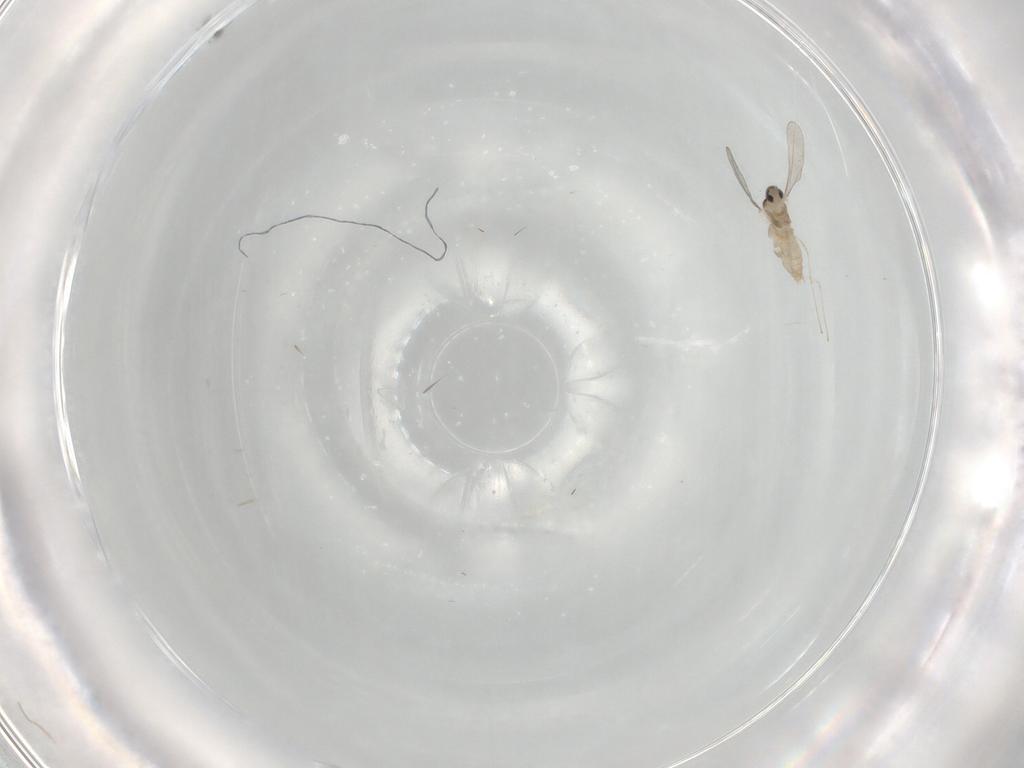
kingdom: Animalia
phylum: Arthropoda
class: Insecta
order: Diptera
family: Cecidomyiidae
